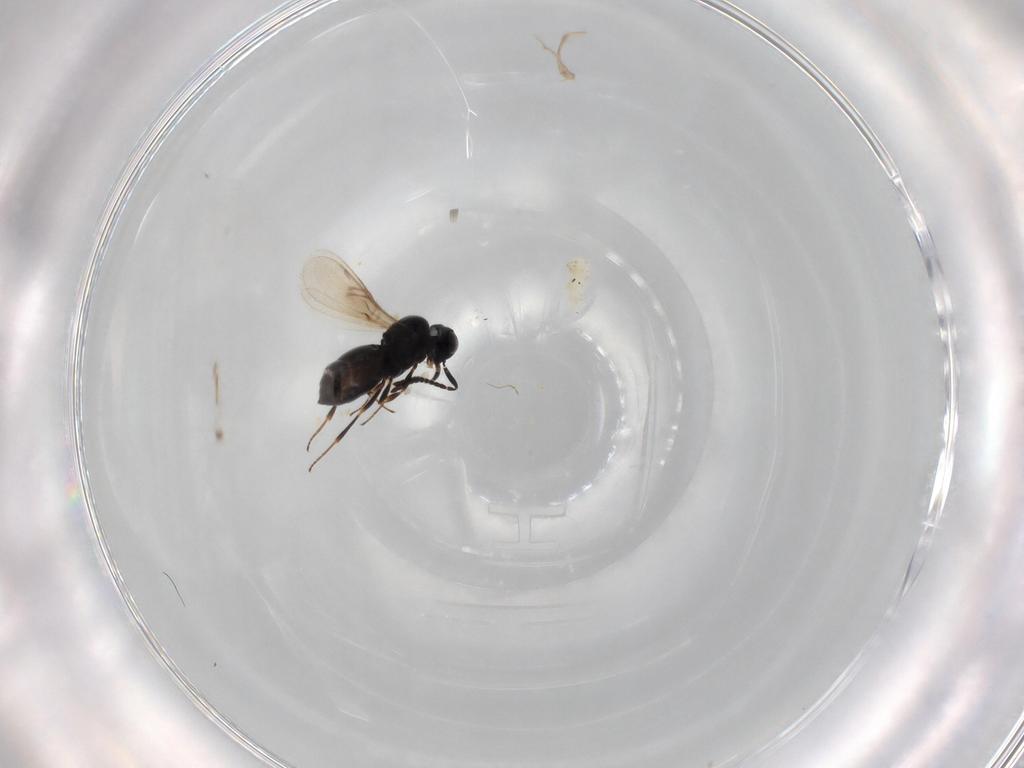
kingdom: Animalia
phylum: Arthropoda
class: Insecta
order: Hymenoptera
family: Scelionidae
